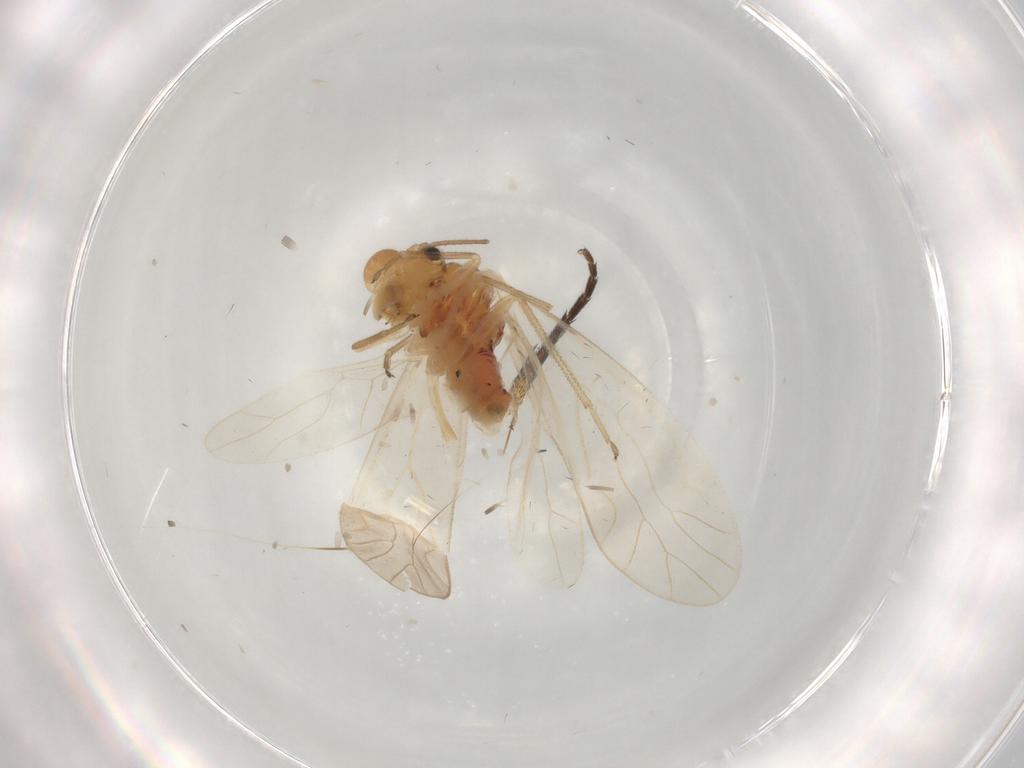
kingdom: Animalia
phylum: Arthropoda
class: Insecta
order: Psocodea
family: Caeciliusidae
